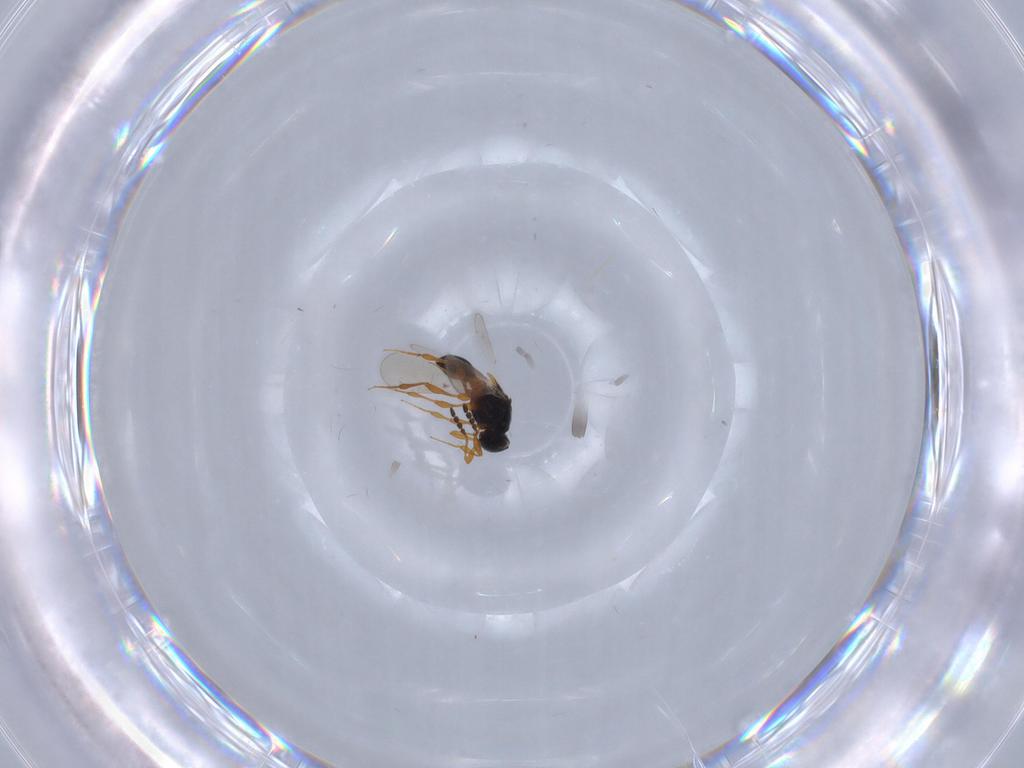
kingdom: Animalia
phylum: Arthropoda
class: Insecta
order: Hymenoptera
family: Platygastridae
